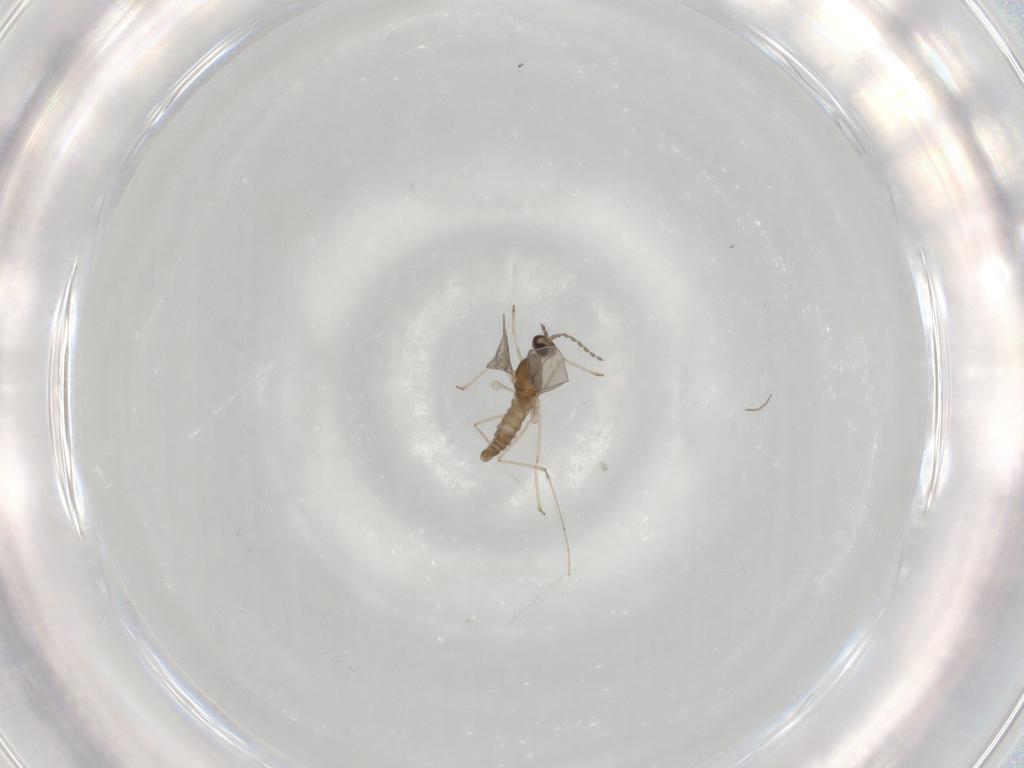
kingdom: Animalia
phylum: Arthropoda
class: Insecta
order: Diptera
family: Cecidomyiidae
